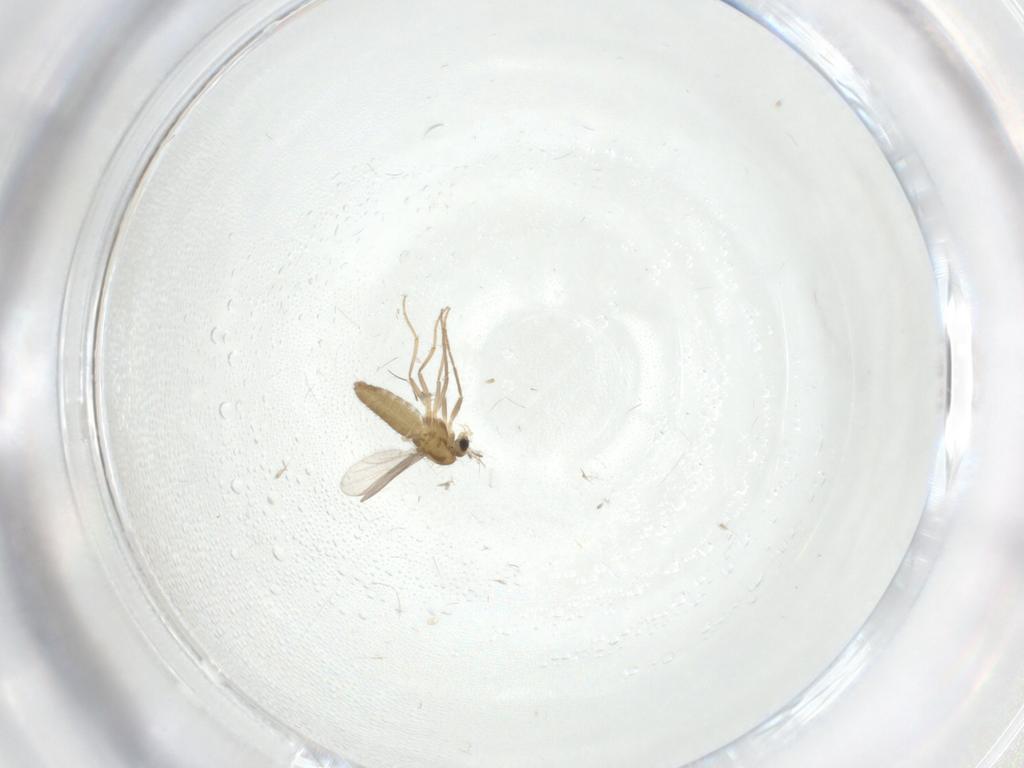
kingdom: Animalia
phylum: Arthropoda
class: Insecta
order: Diptera
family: Chironomidae
